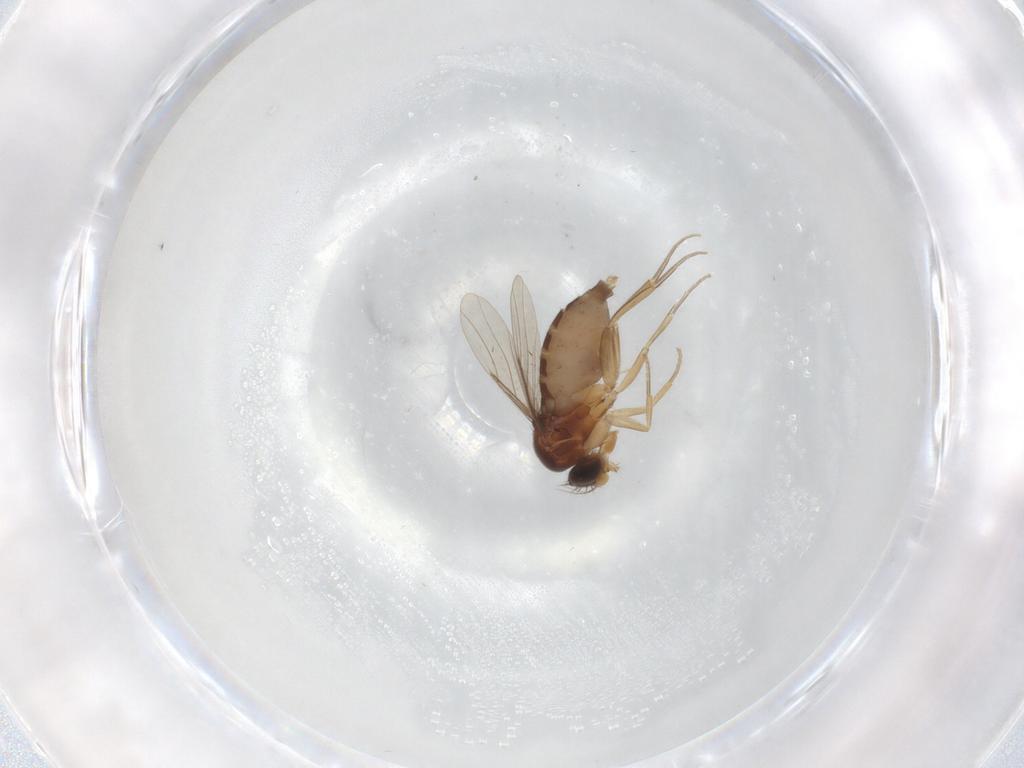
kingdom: Animalia
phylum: Arthropoda
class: Insecta
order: Diptera
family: Phoridae
